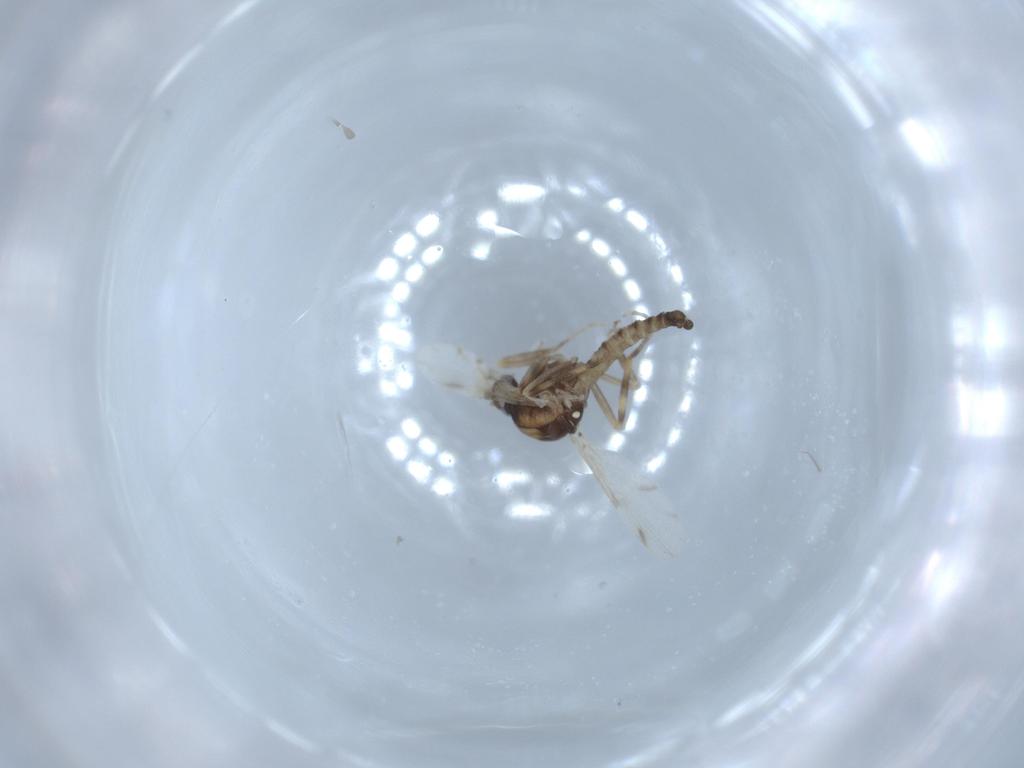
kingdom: Animalia
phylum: Arthropoda
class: Insecta
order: Diptera
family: Ceratopogonidae
